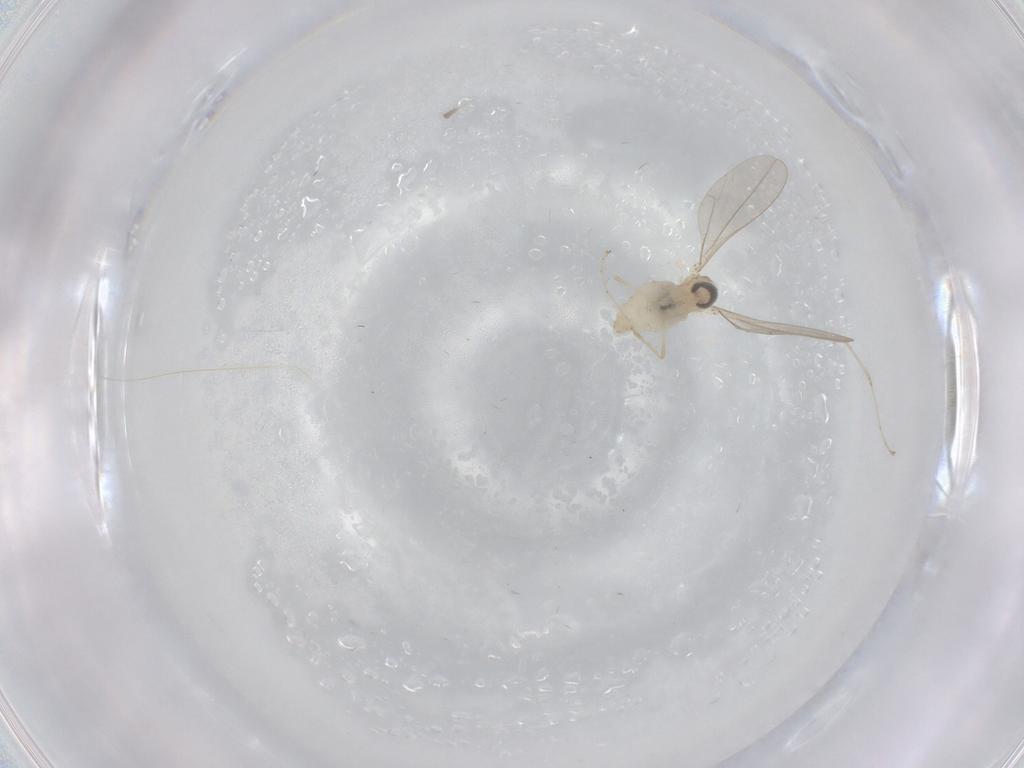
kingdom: Animalia
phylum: Arthropoda
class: Insecta
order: Diptera
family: Cecidomyiidae
